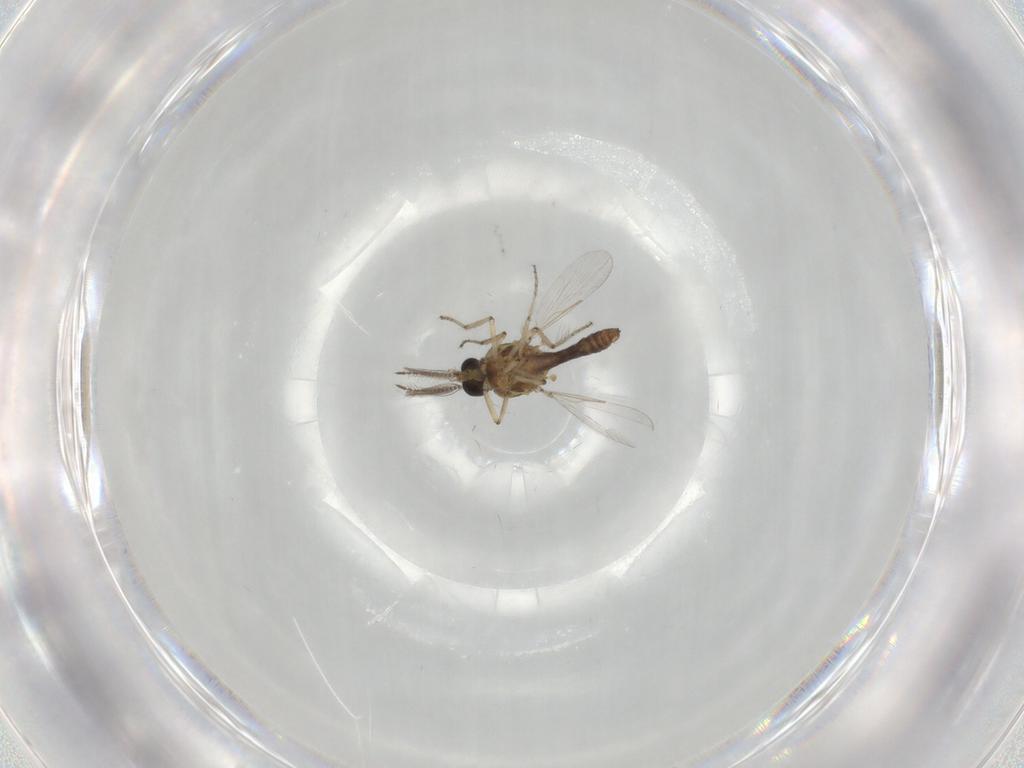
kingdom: Animalia
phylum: Arthropoda
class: Insecta
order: Diptera
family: Ceratopogonidae
